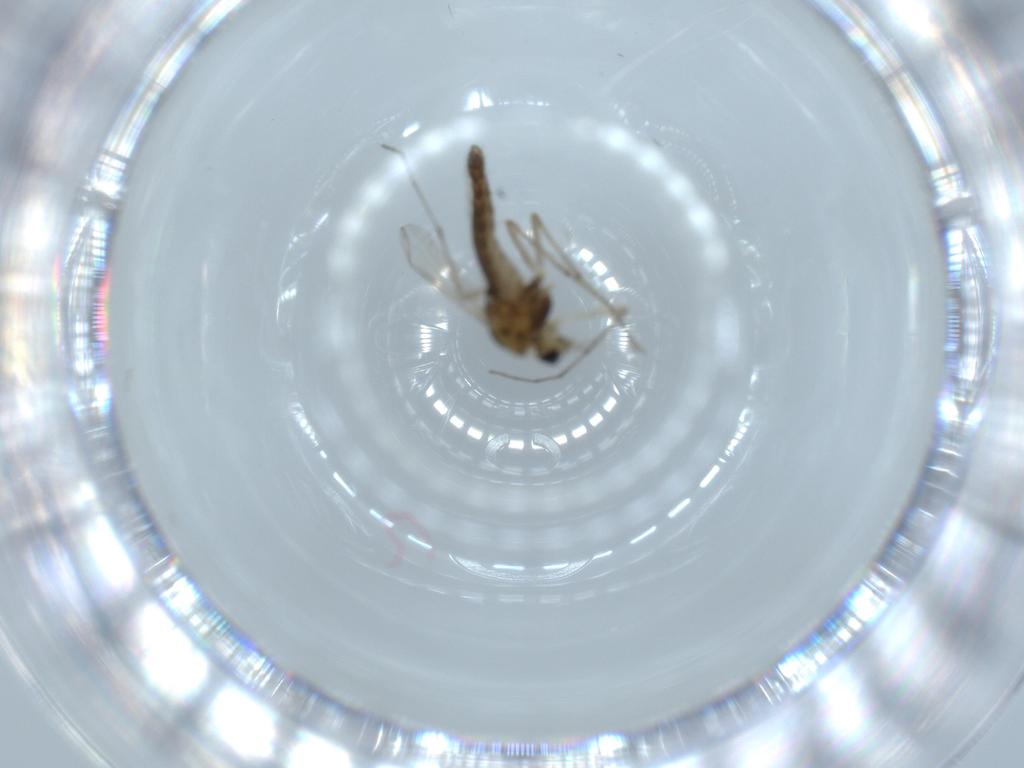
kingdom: Animalia
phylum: Arthropoda
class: Insecta
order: Diptera
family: Chironomidae
